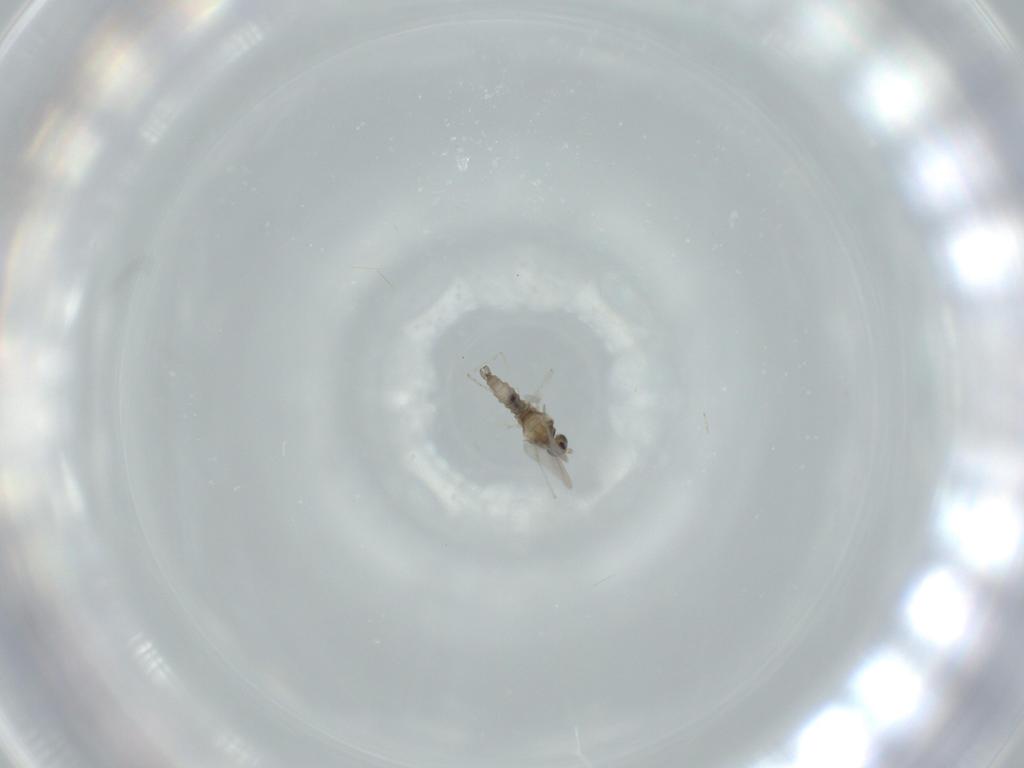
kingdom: Animalia
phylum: Arthropoda
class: Insecta
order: Diptera
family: Cecidomyiidae
